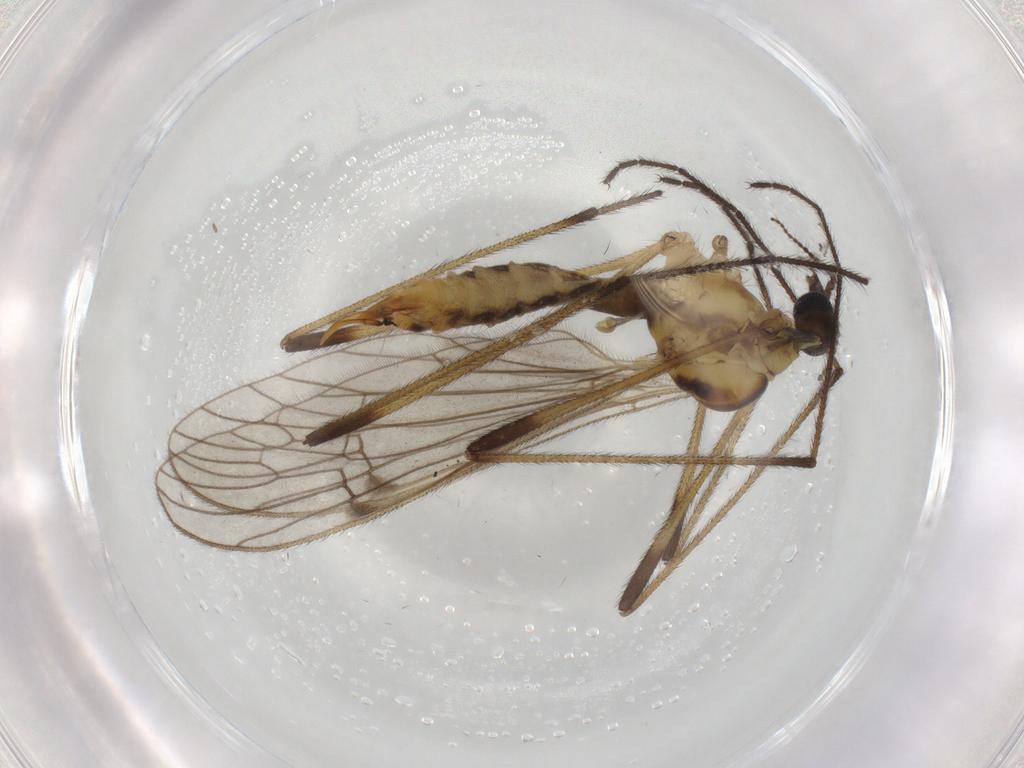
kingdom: Animalia
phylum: Arthropoda
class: Insecta
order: Diptera
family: Limoniidae
